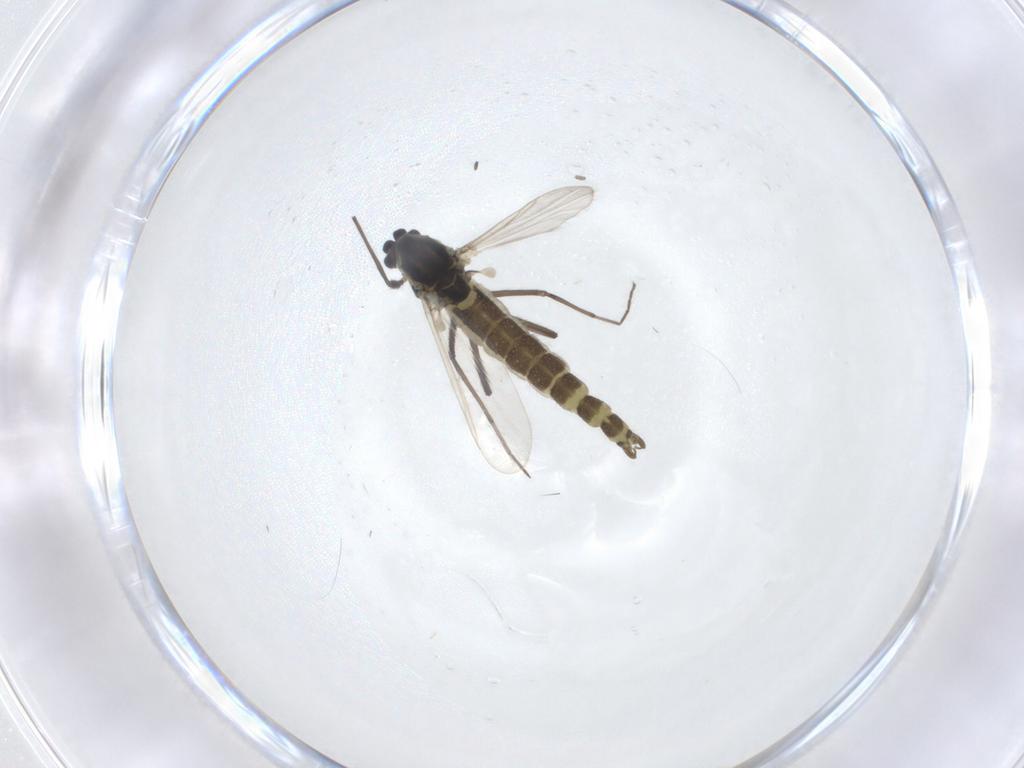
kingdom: Animalia
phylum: Arthropoda
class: Insecta
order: Diptera
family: Chironomidae
